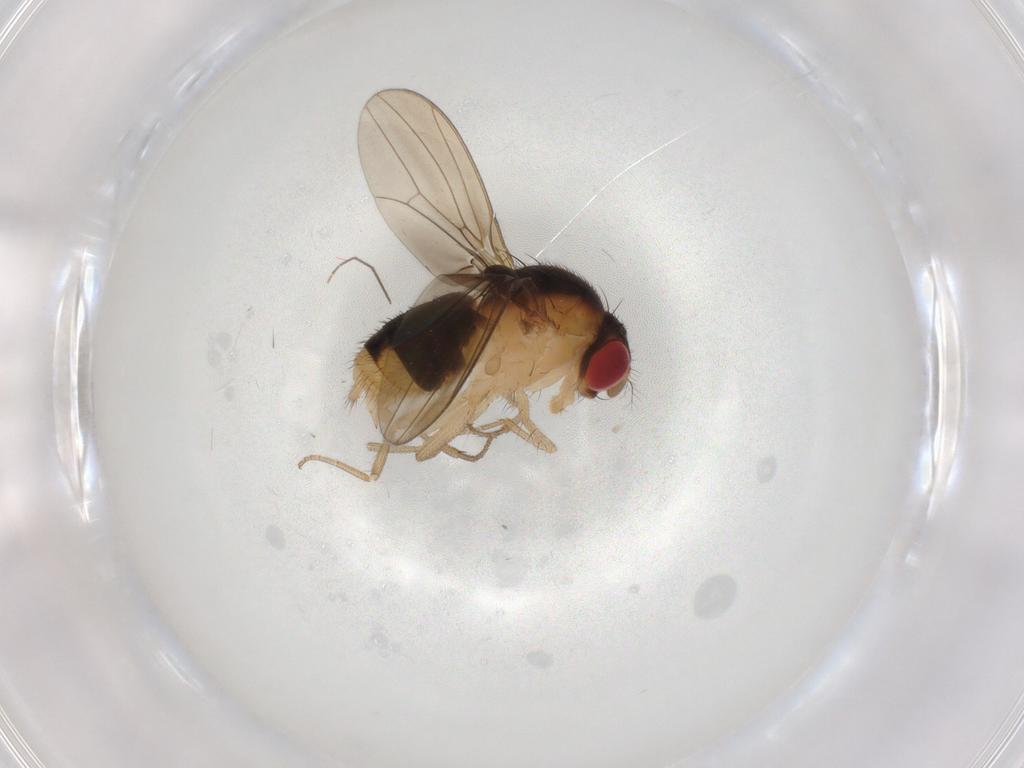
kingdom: Animalia
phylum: Arthropoda
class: Insecta
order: Diptera
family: Drosophilidae
